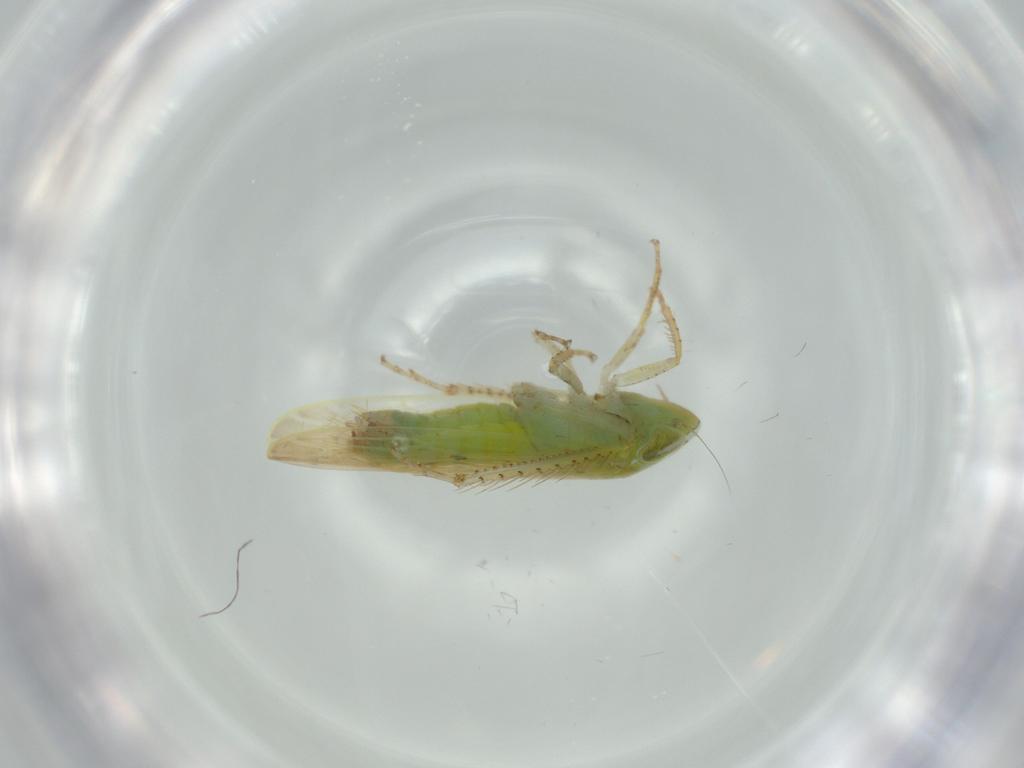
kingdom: Animalia
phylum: Arthropoda
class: Insecta
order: Hemiptera
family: Cicadellidae
